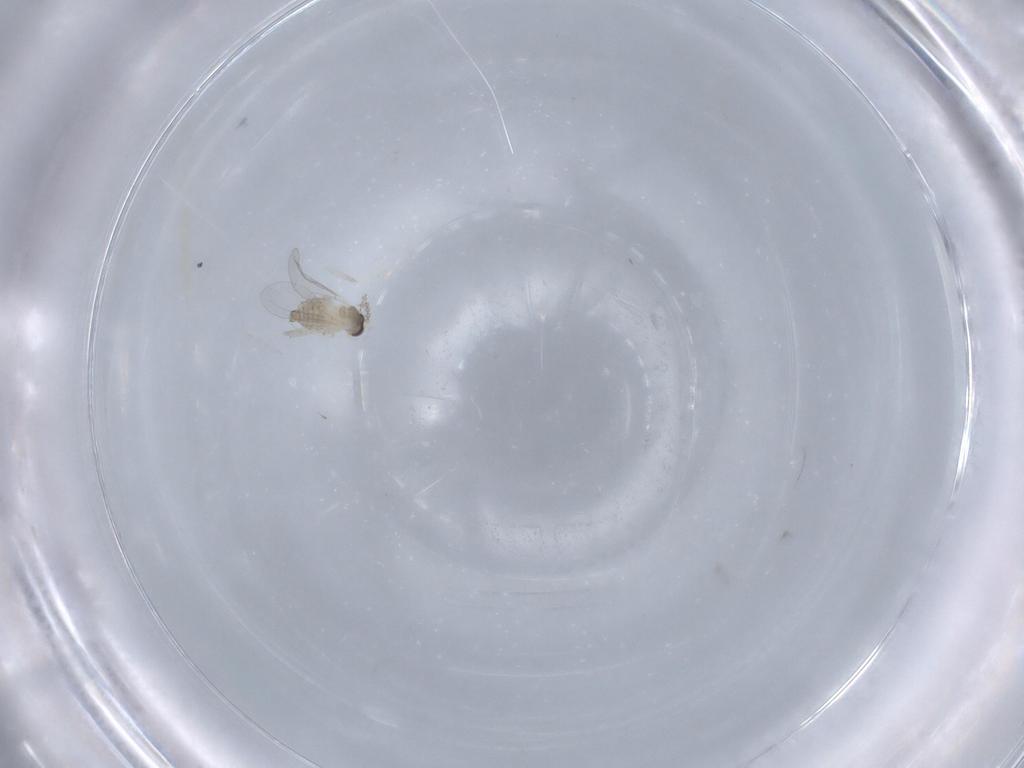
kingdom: Animalia
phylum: Arthropoda
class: Insecta
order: Diptera
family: Cecidomyiidae
